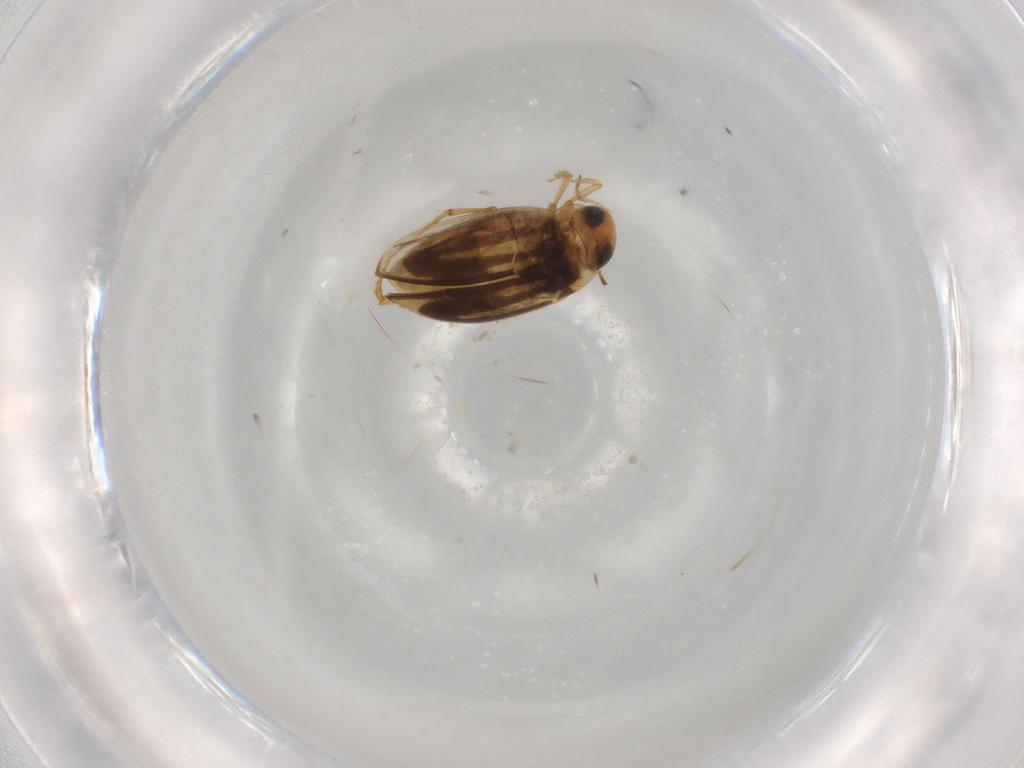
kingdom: Animalia
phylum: Arthropoda
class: Insecta
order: Coleoptera
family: Dytiscidae
